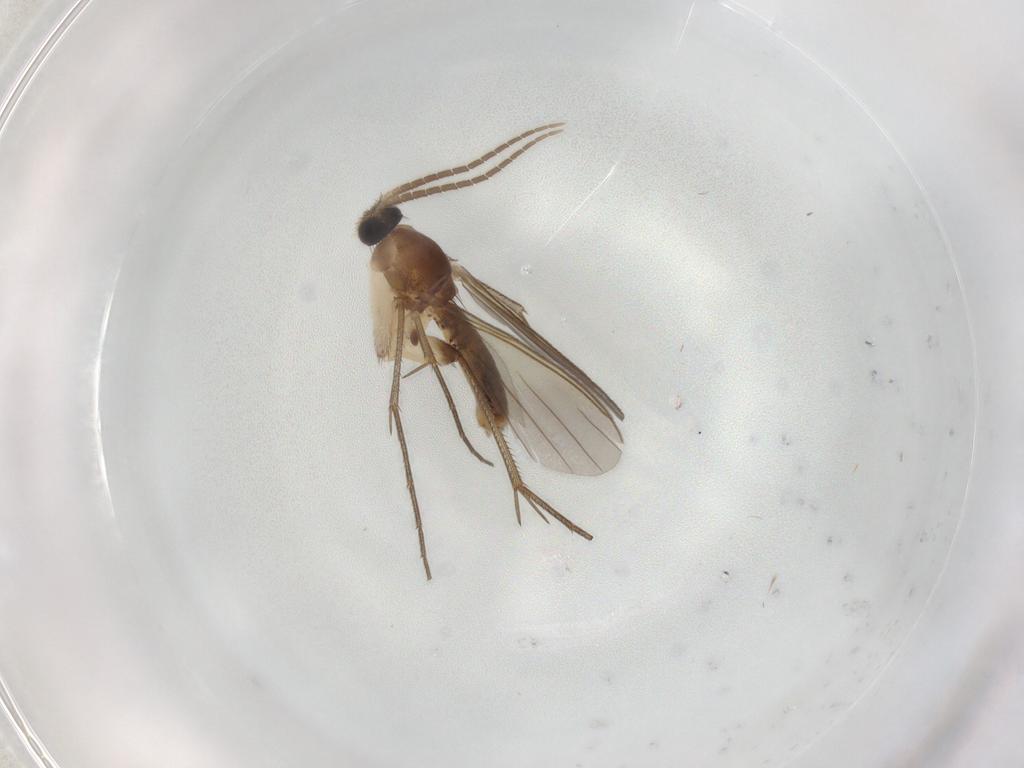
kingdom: Animalia
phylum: Arthropoda
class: Insecta
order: Diptera
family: Mycetophilidae
